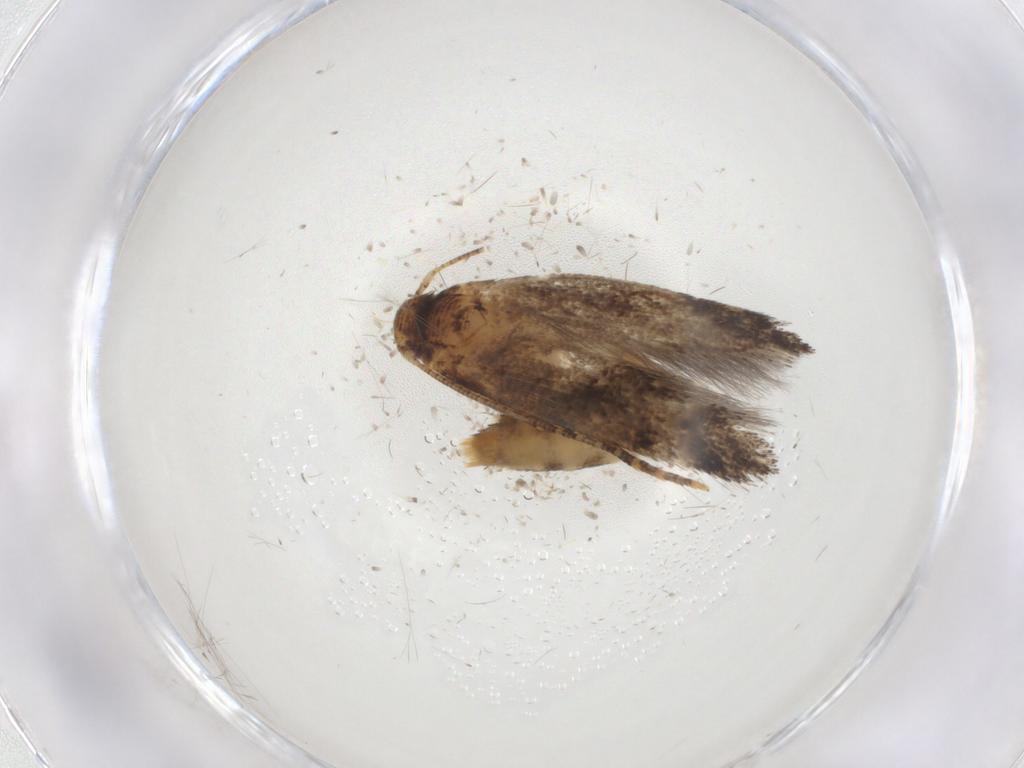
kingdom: Animalia
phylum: Arthropoda
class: Insecta
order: Lepidoptera
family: Momphidae
